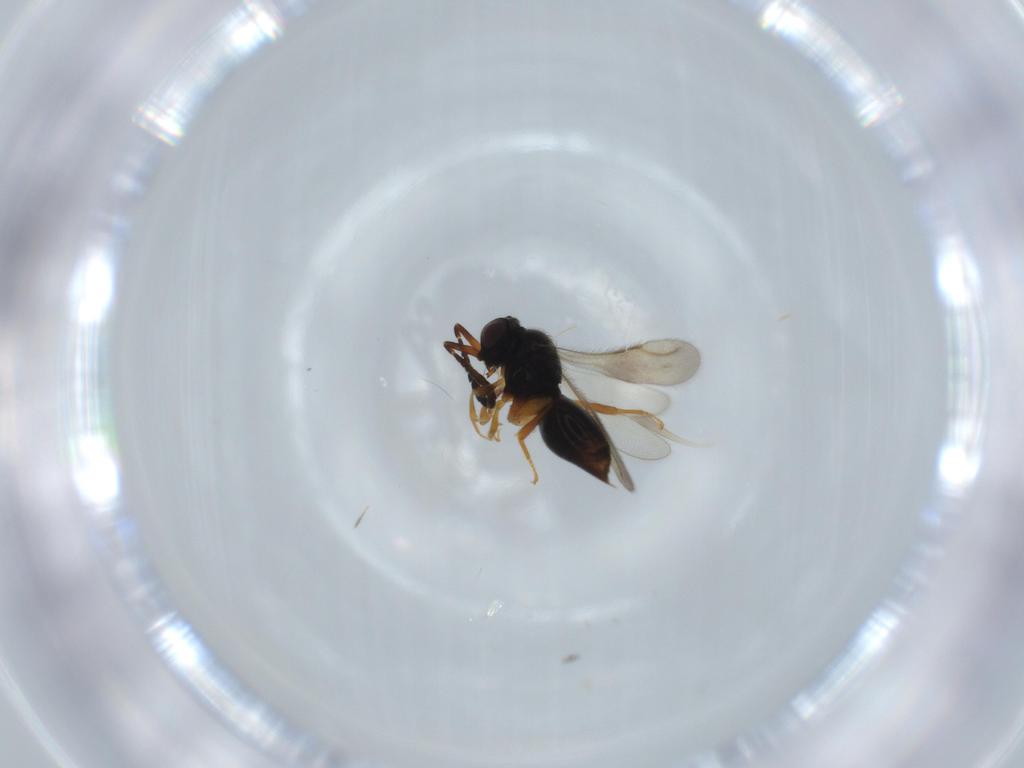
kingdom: Animalia
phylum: Arthropoda
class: Insecta
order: Hymenoptera
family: Ceraphronidae
